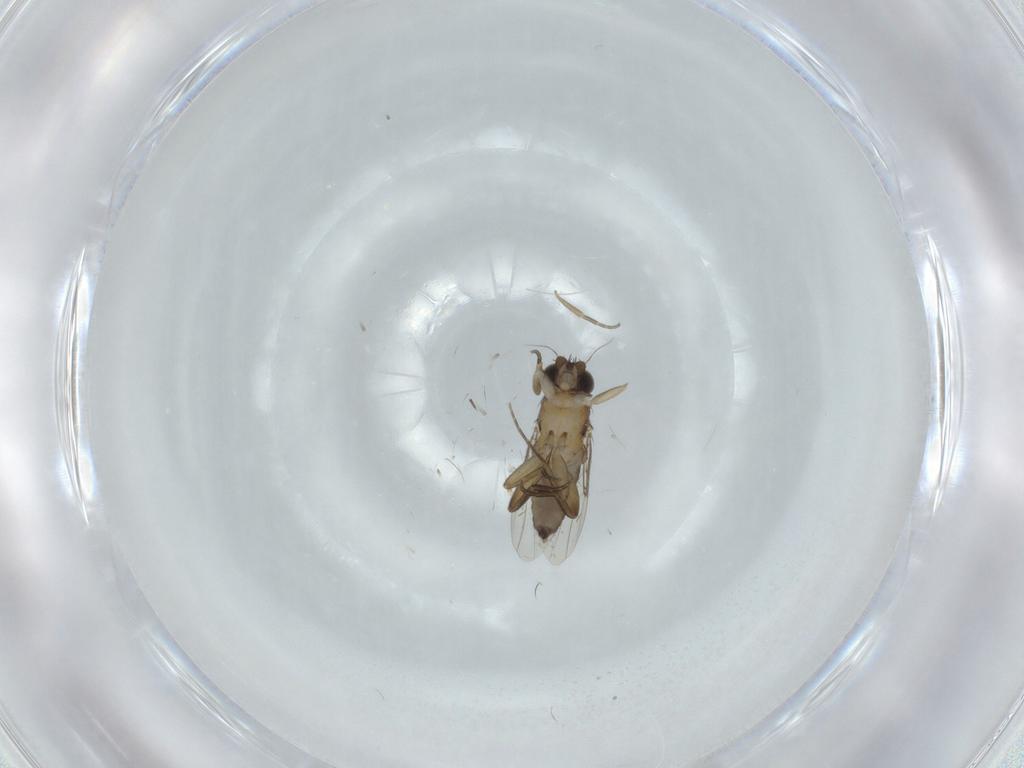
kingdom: Animalia
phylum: Arthropoda
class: Insecta
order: Diptera
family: Phoridae
